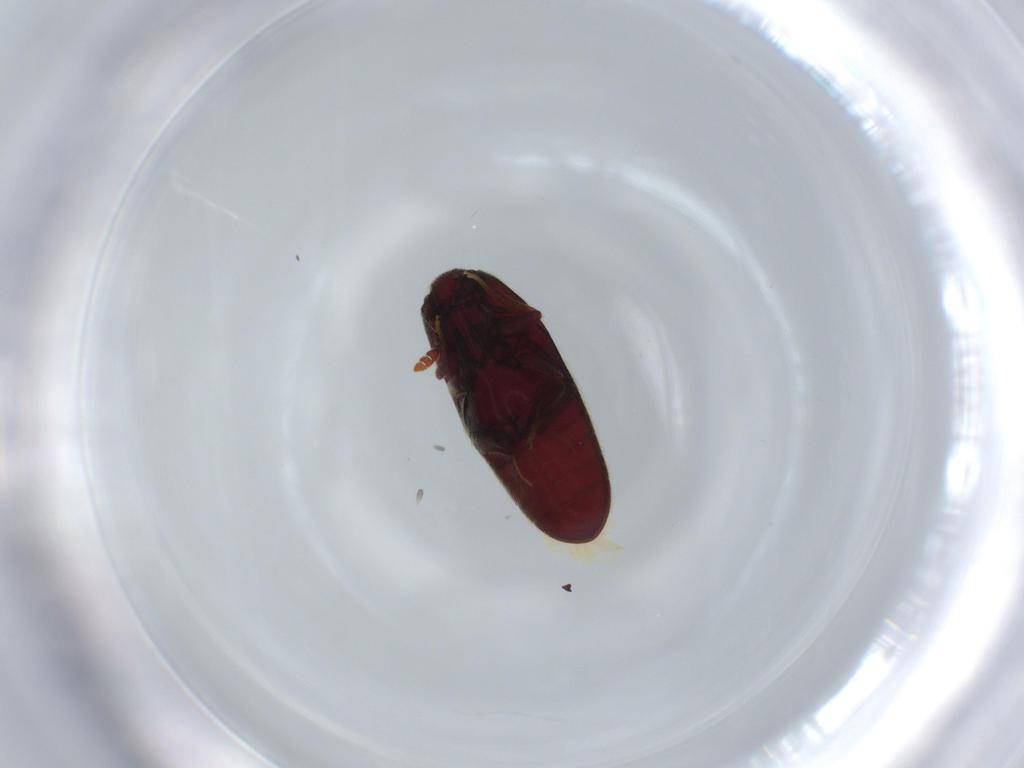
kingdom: Animalia
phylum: Arthropoda
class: Insecta
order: Coleoptera
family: Throscidae
